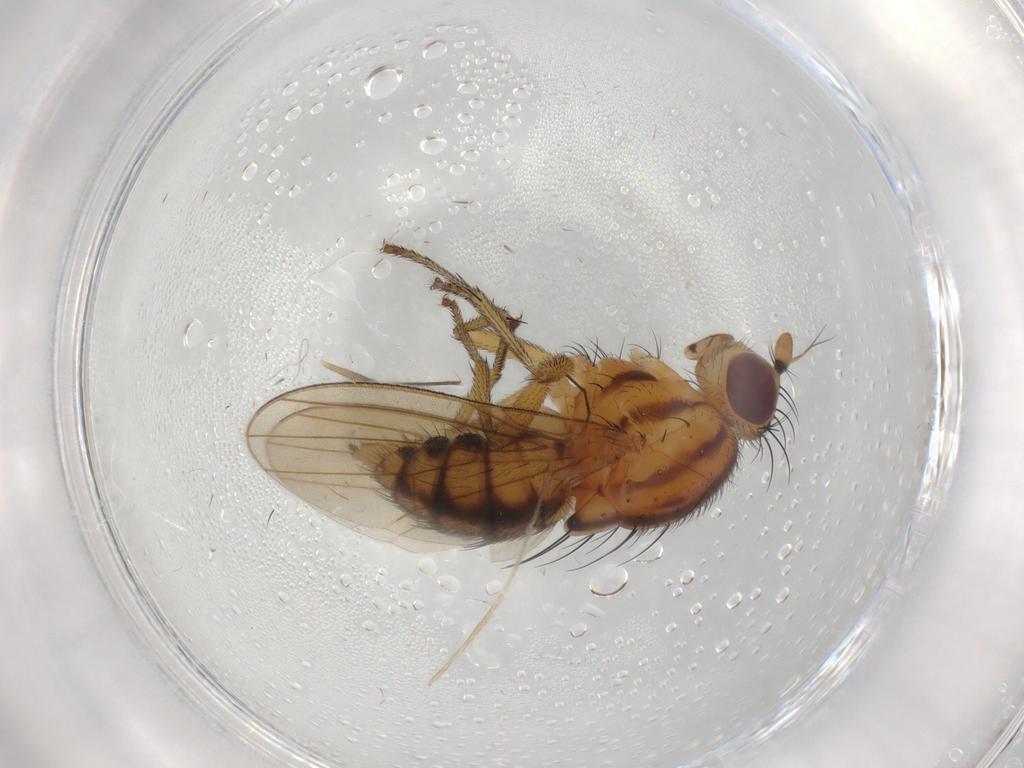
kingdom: Animalia
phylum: Arthropoda
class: Insecta
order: Diptera
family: Lauxaniidae
